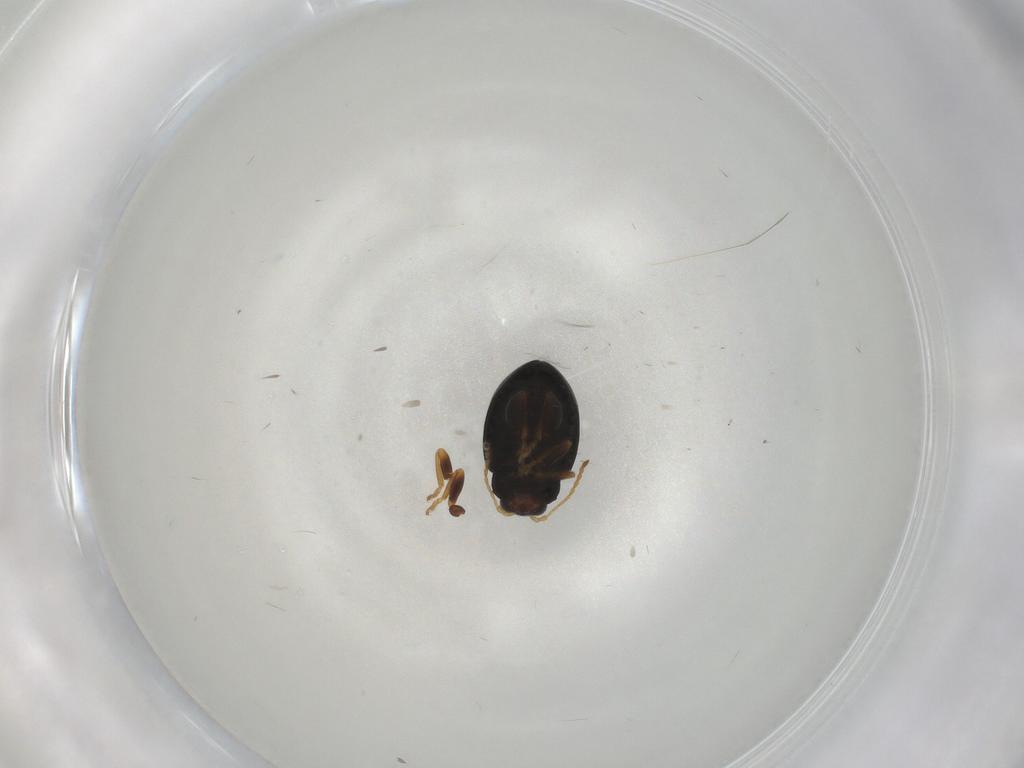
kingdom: Animalia
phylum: Arthropoda
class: Insecta
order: Coleoptera
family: Chrysomelidae
